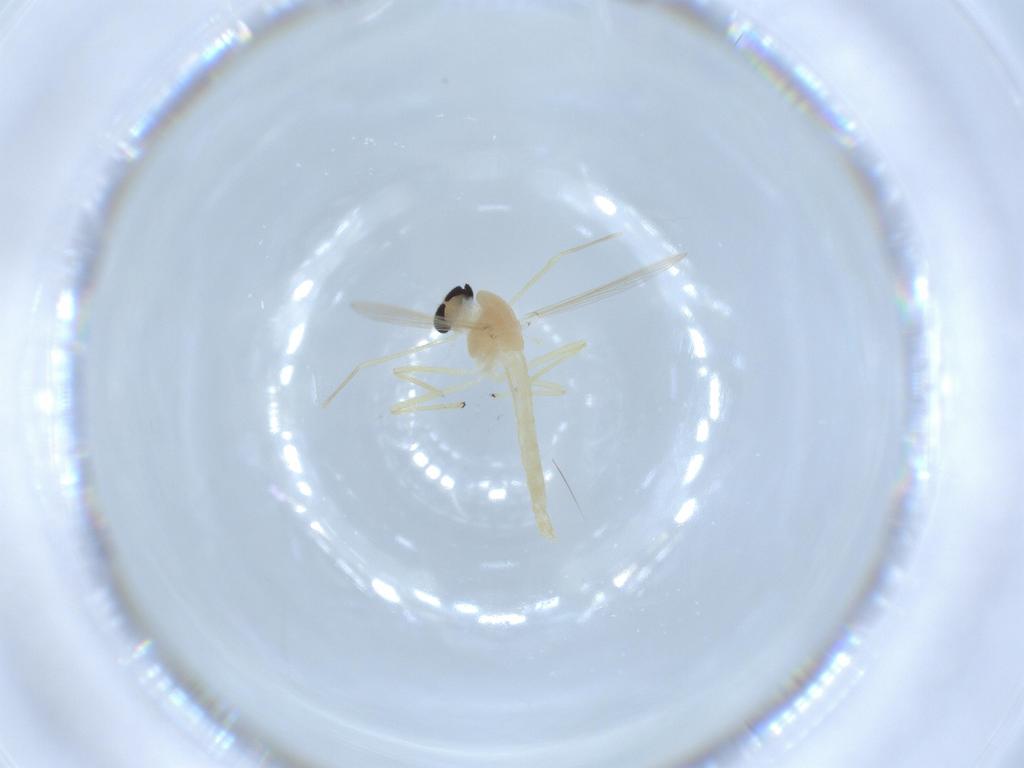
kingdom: Animalia
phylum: Arthropoda
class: Insecta
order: Diptera
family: Chironomidae
